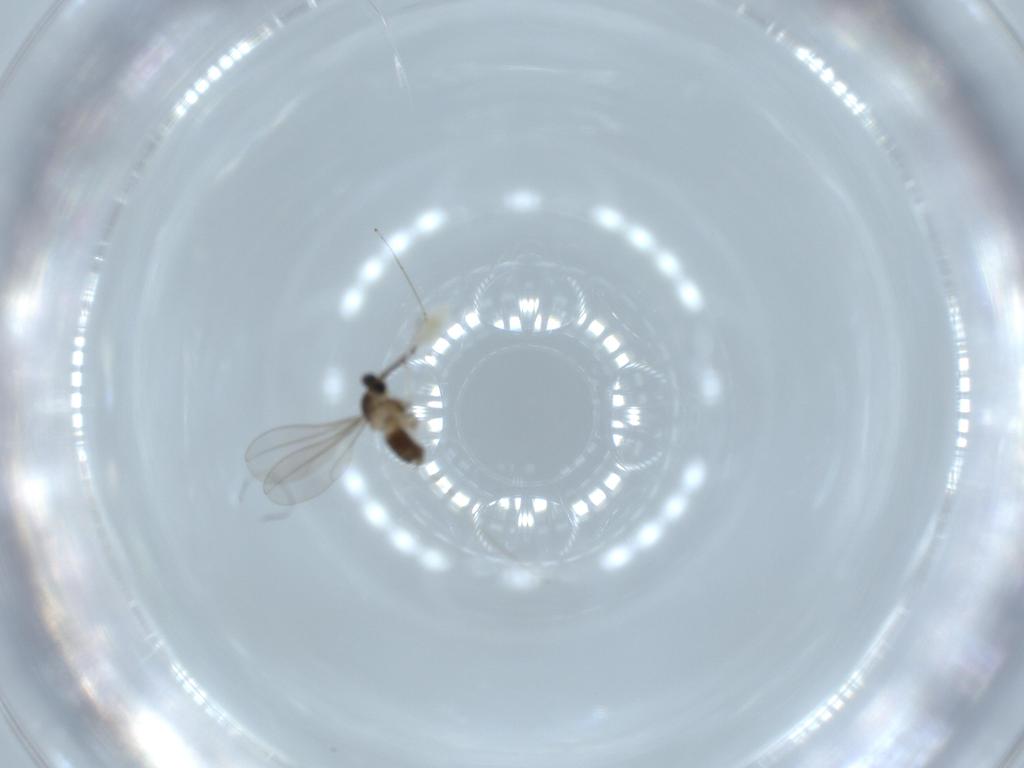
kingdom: Animalia
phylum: Arthropoda
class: Insecta
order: Diptera
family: Cecidomyiidae
